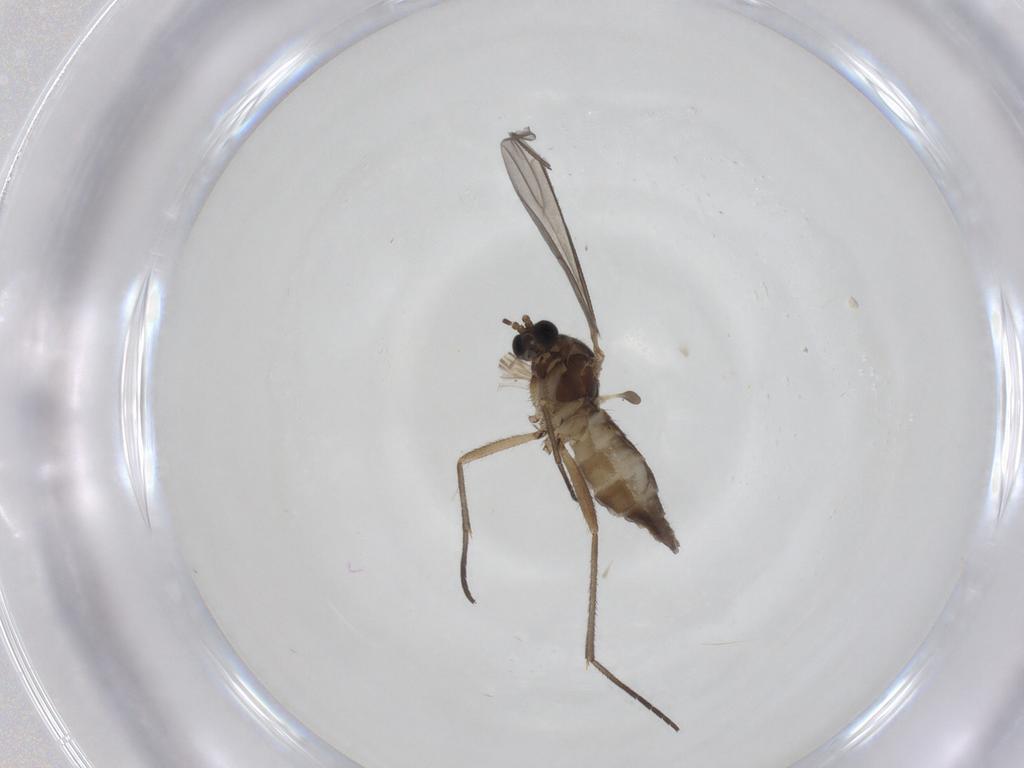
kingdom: Animalia
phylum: Arthropoda
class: Insecta
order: Diptera
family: Sciaridae
